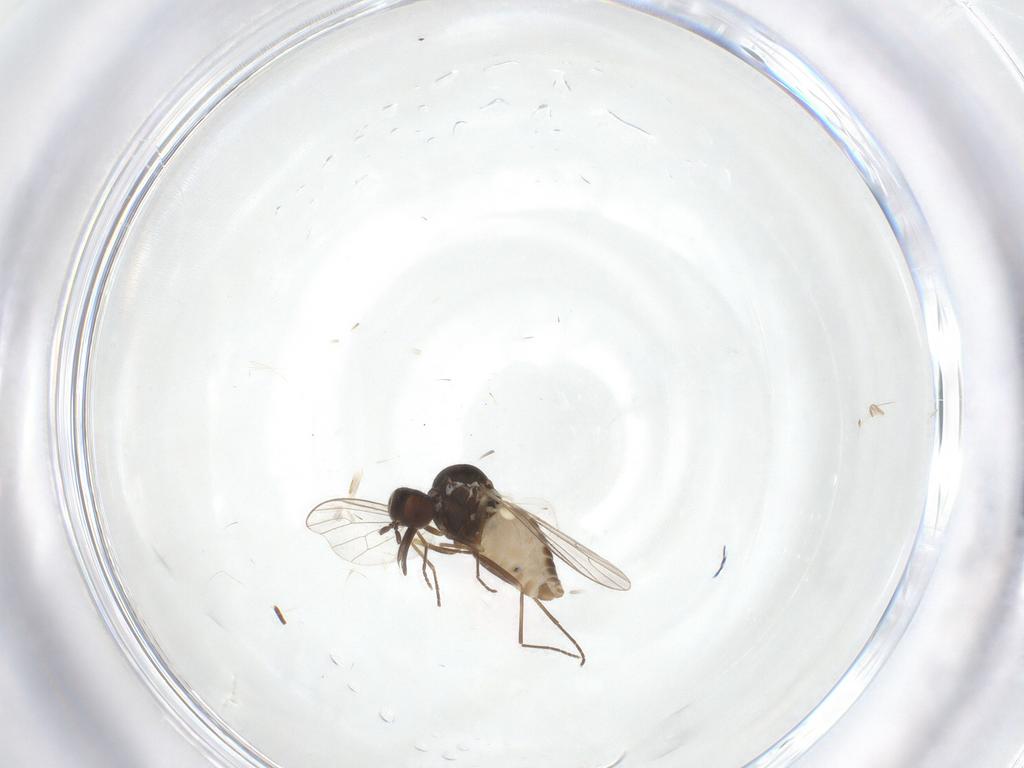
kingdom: Animalia
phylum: Arthropoda
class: Insecta
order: Diptera
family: Bombyliidae
